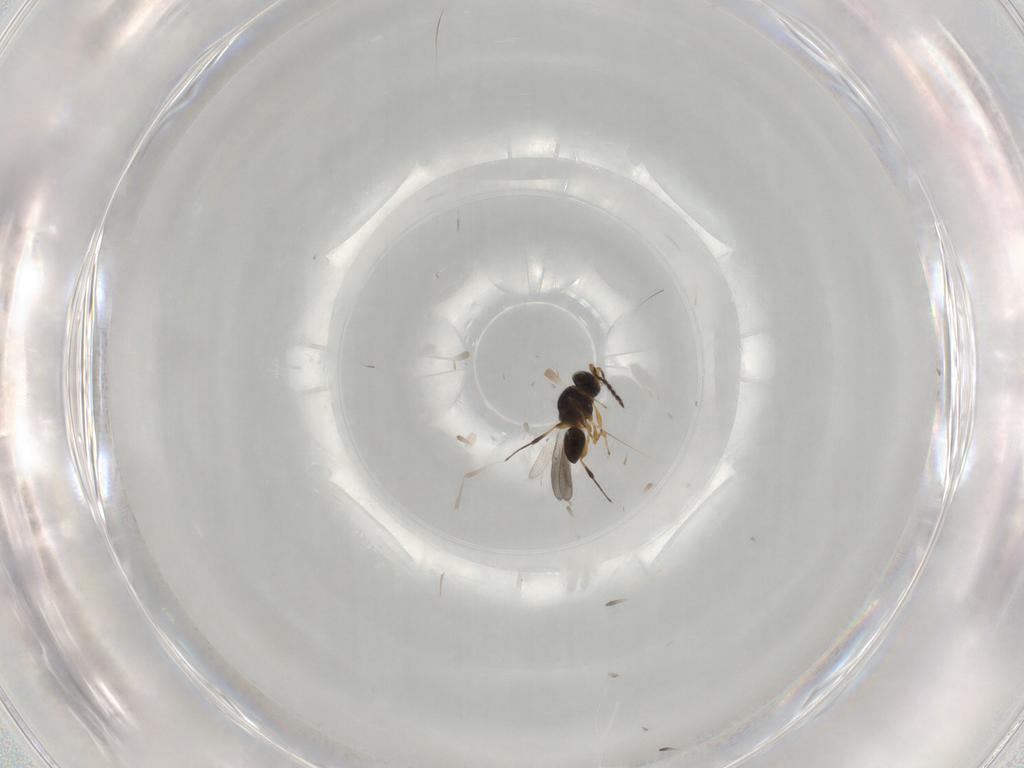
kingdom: Animalia
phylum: Arthropoda
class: Insecta
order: Hymenoptera
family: Platygastridae
